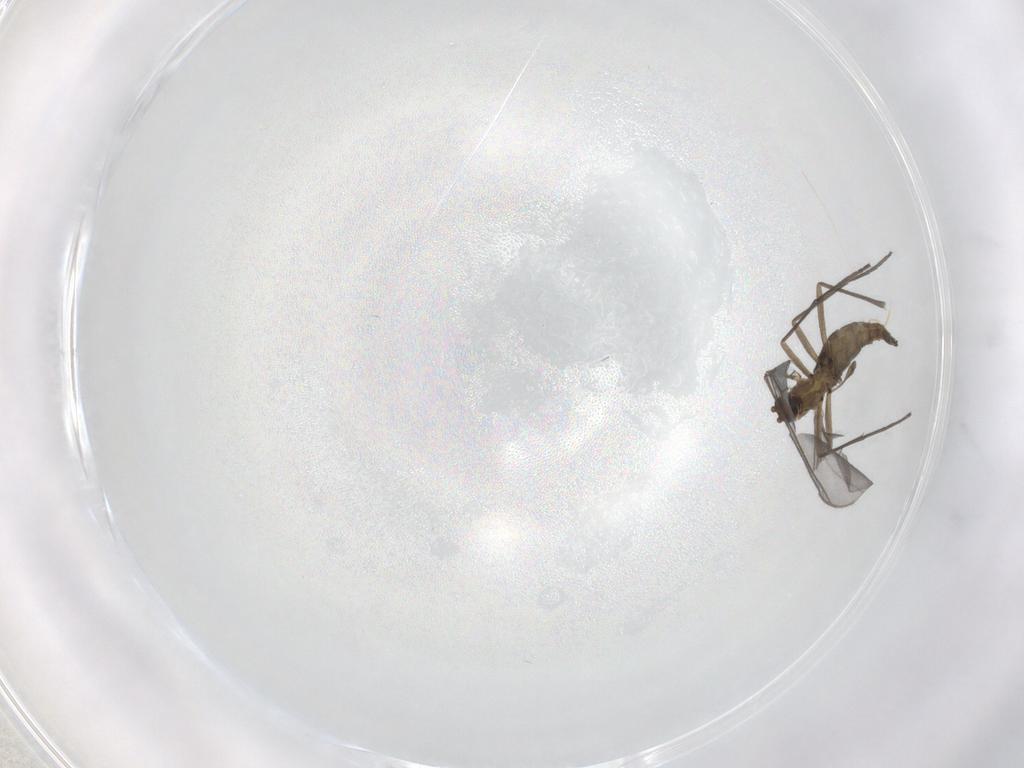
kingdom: Animalia
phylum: Arthropoda
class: Insecta
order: Diptera
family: Sciaridae
